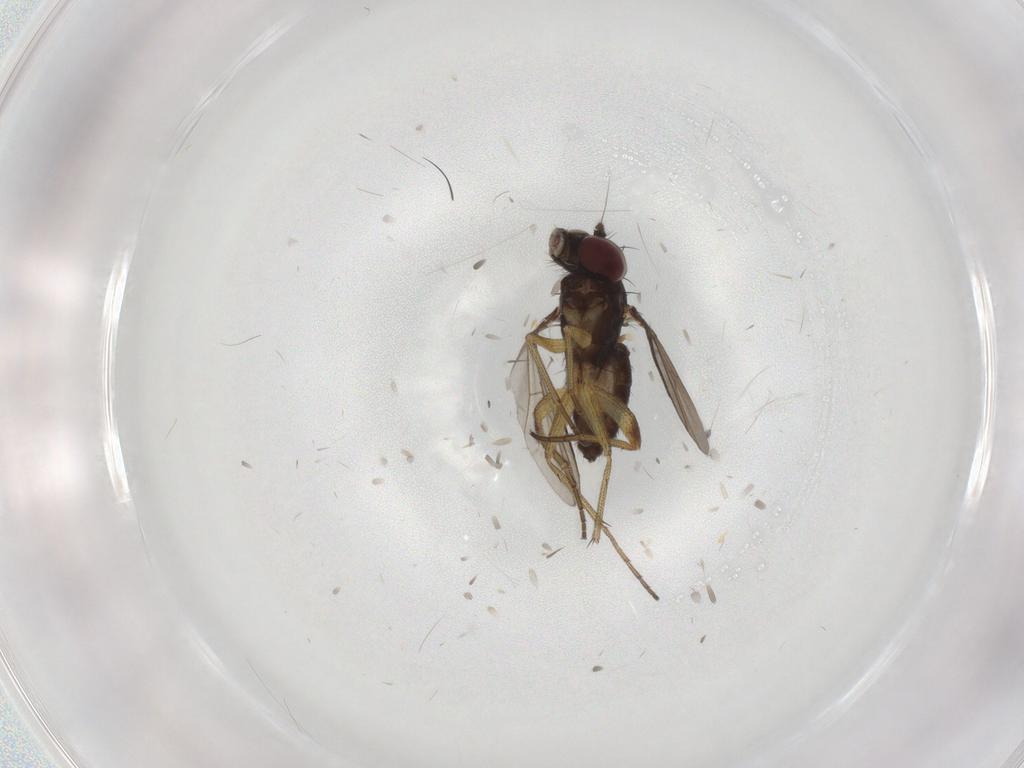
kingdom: Animalia
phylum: Arthropoda
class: Insecta
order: Diptera
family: Dolichopodidae
